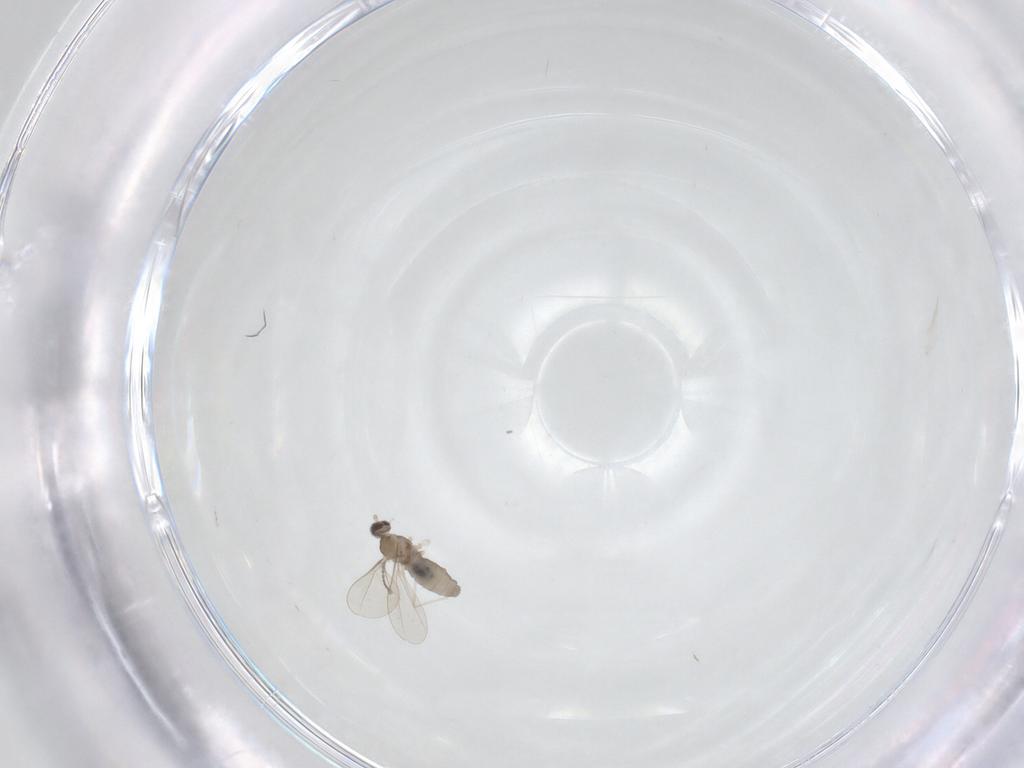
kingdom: Animalia
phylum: Arthropoda
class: Insecta
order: Diptera
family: Cecidomyiidae
